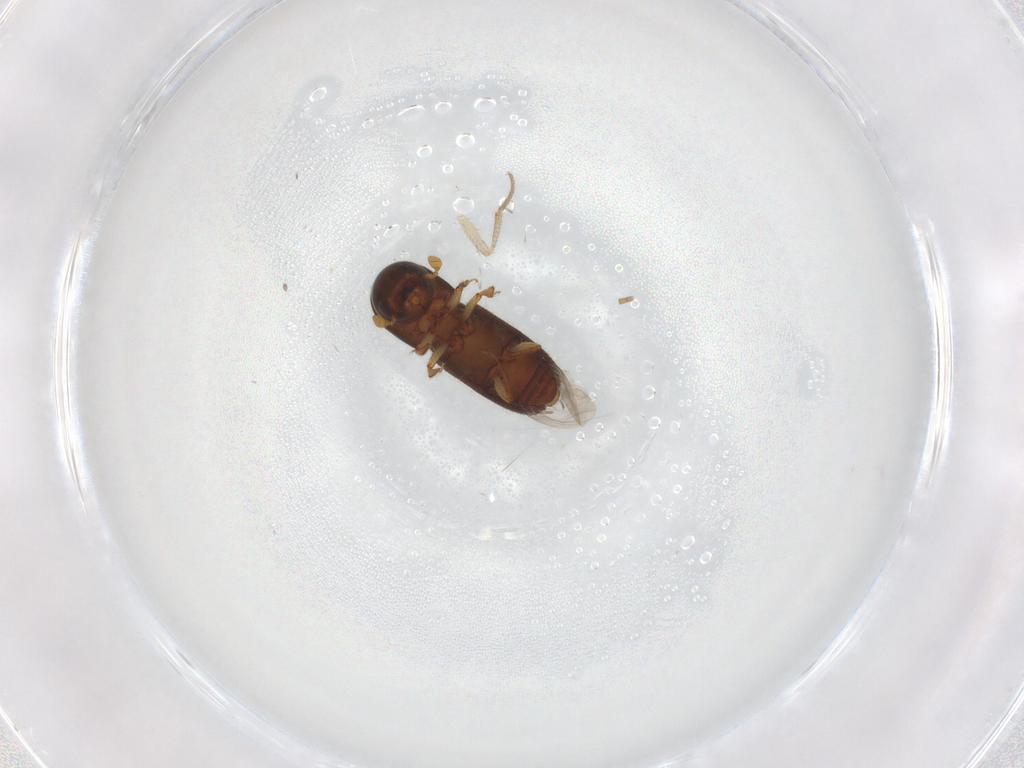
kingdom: Animalia
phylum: Arthropoda
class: Insecta
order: Coleoptera
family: Curculionidae
